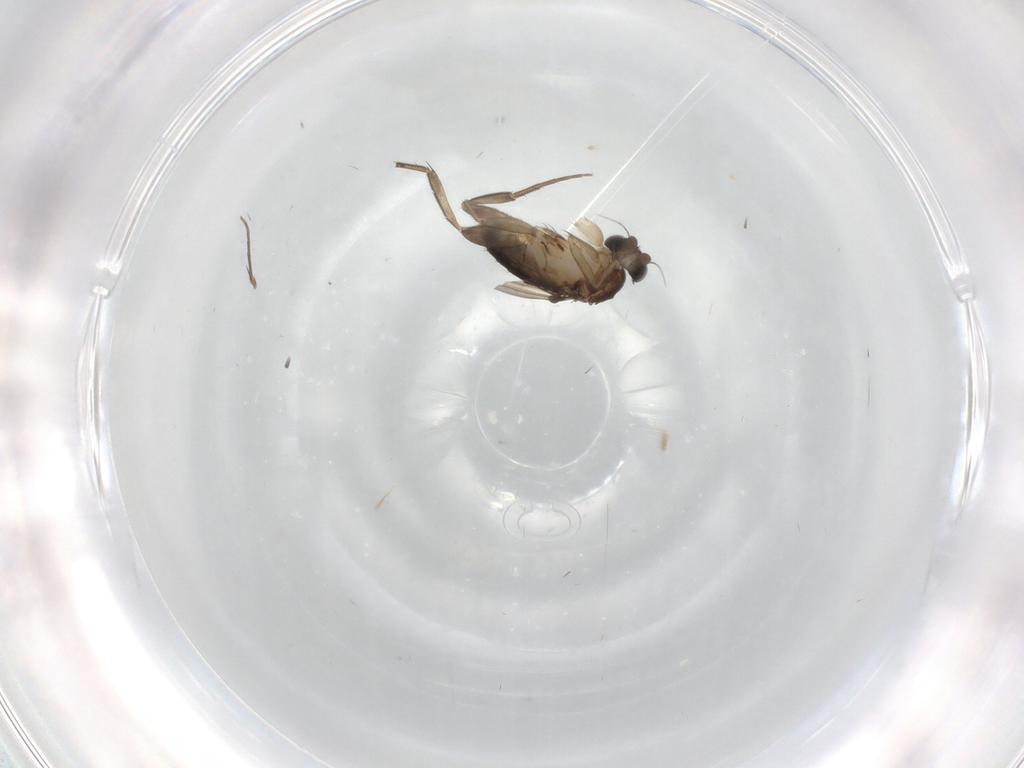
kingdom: Animalia
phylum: Arthropoda
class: Insecta
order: Diptera
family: Phoridae
